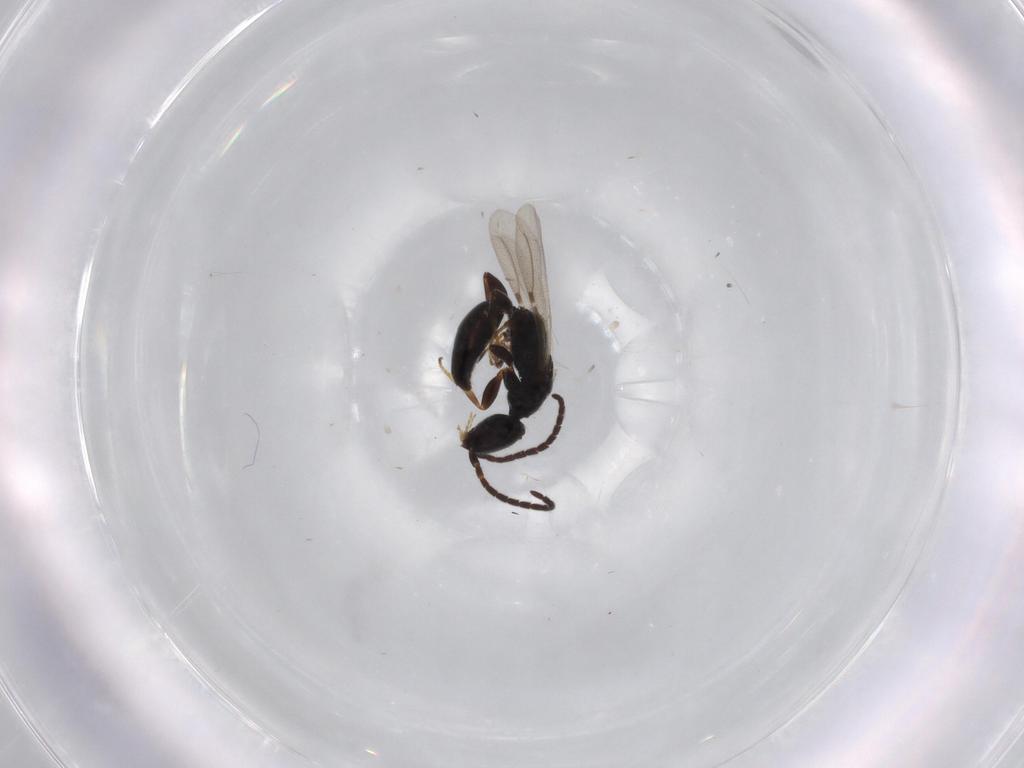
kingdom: Animalia
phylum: Arthropoda
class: Insecta
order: Hymenoptera
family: Bethylidae
